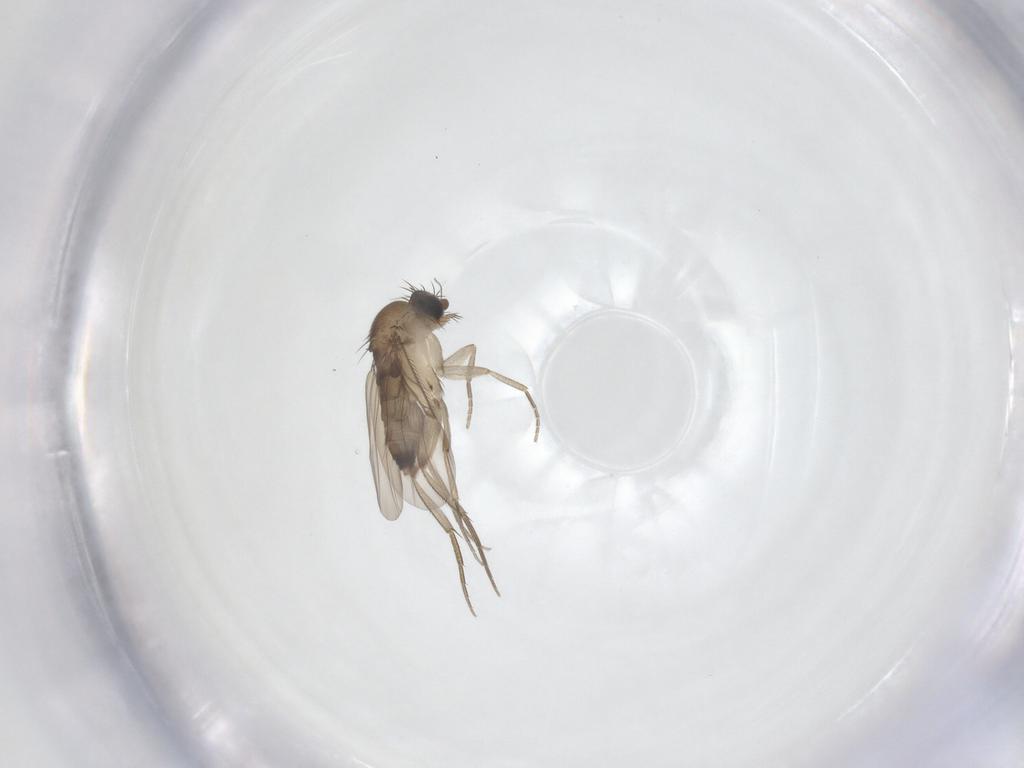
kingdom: Animalia
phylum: Arthropoda
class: Insecta
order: Diptera
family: Phoridae
